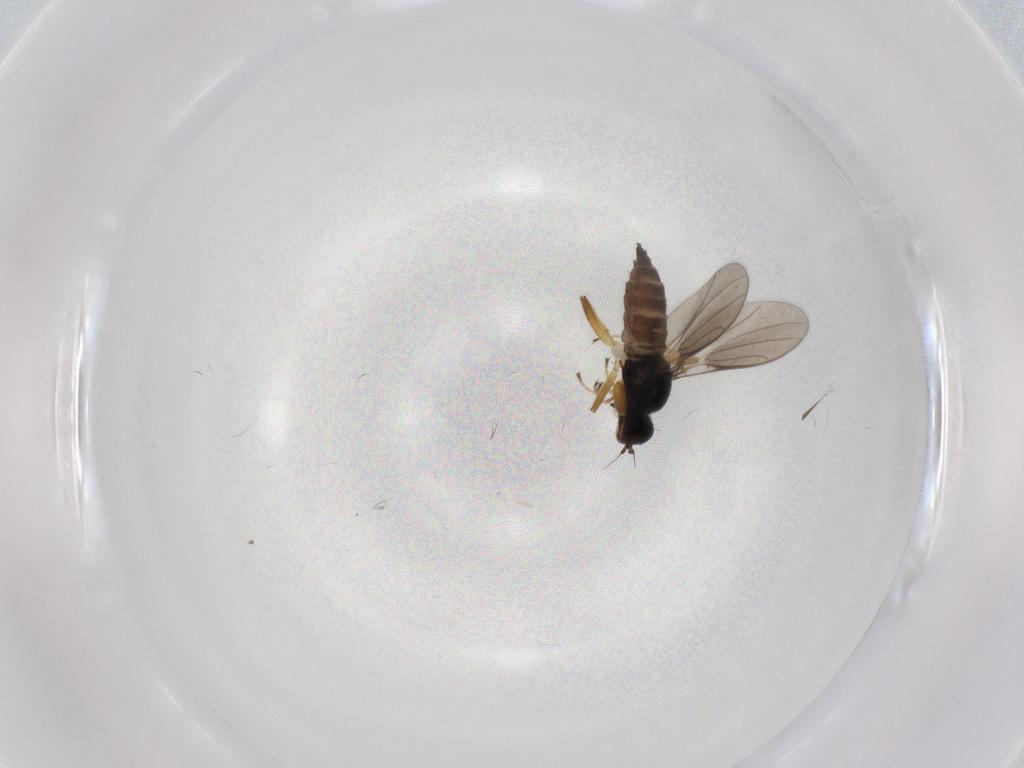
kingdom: Animalia
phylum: Arthropoda
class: Insecta
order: Diptera
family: Hybotidae
